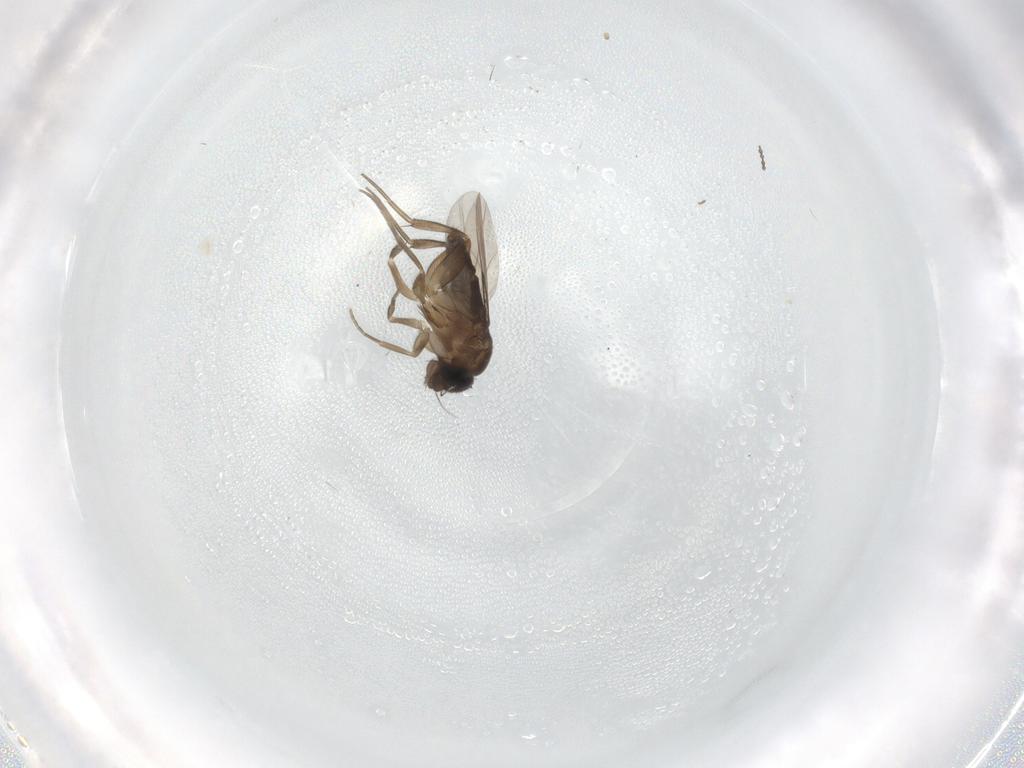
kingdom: Animalia
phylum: Arthropoda
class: Insecta
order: Diptera
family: Phoridae
